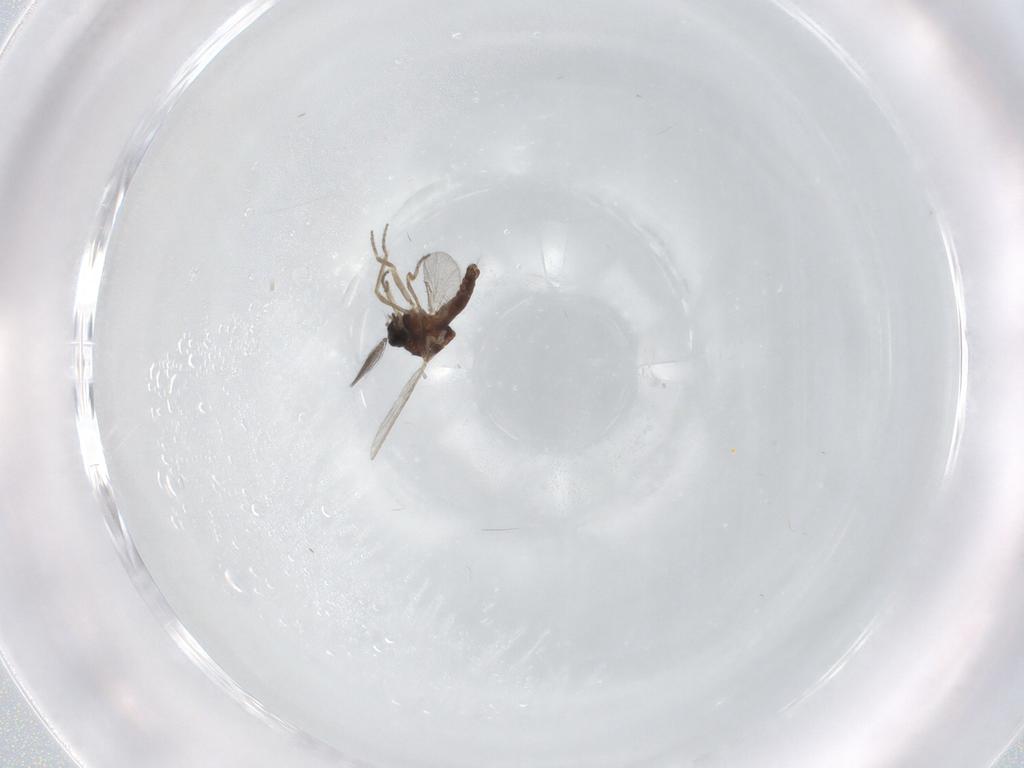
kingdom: Animalia
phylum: Arthropoda
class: Insecta
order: Diptera
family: Ceratopogonidae
